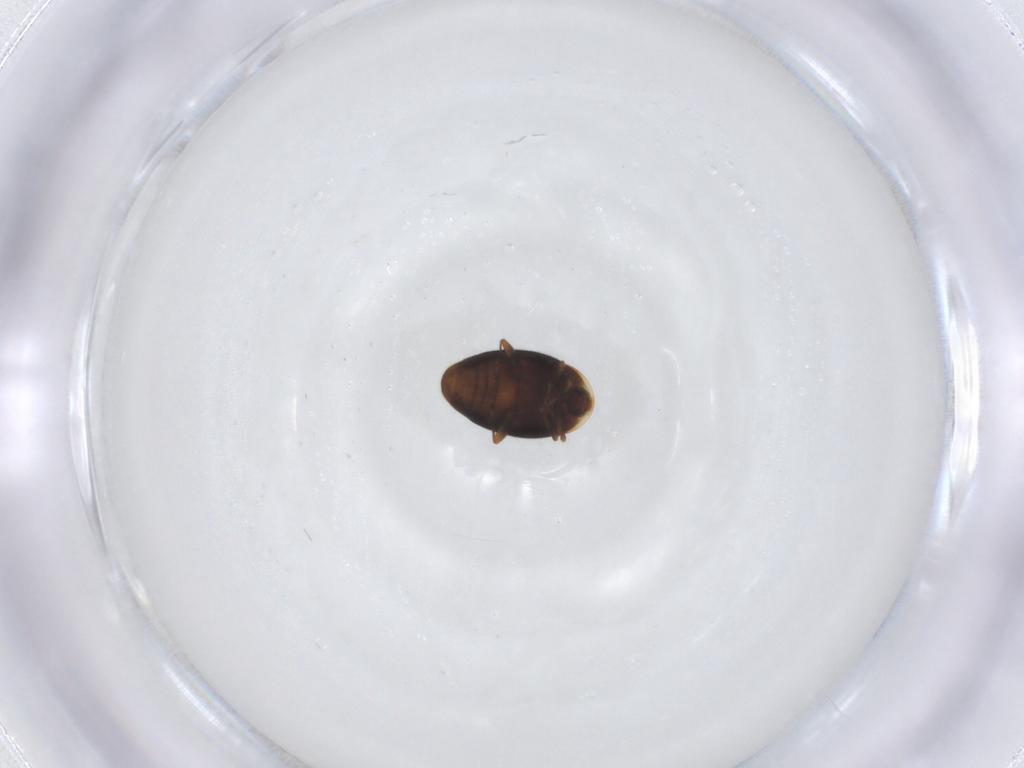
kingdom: Animalia
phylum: Arthropoda
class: Insecta
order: Coleoptera
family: Corylophidae
